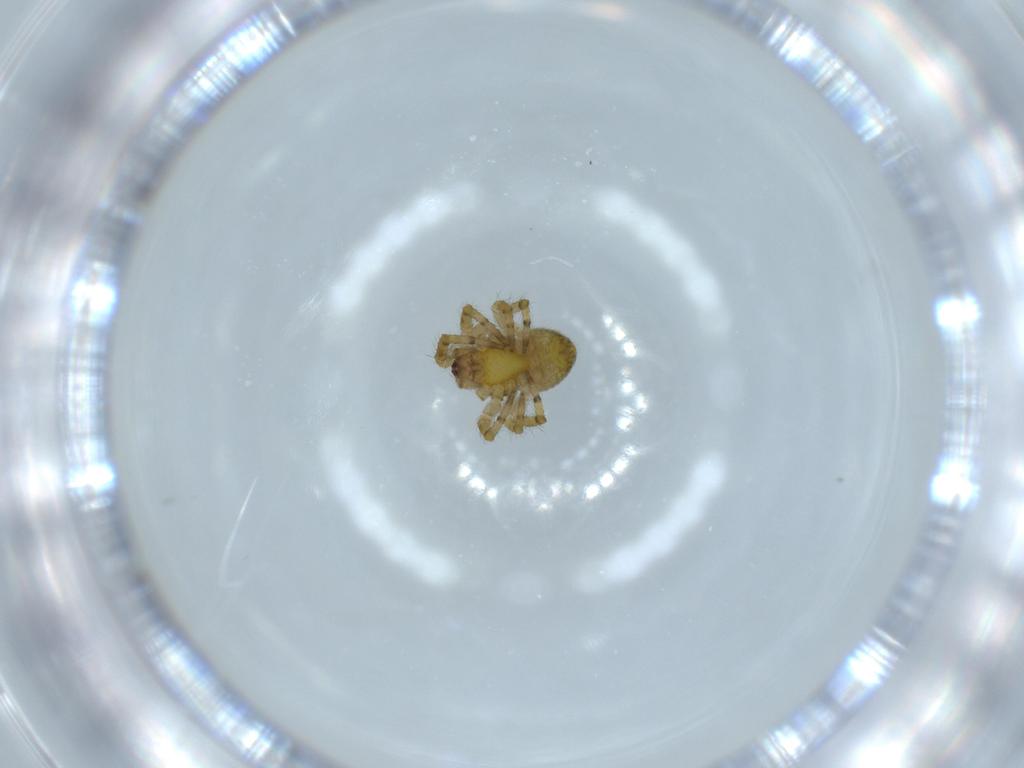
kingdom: Animalia
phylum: Arthropoda
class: Arachnida
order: Araneae
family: Araneidae
